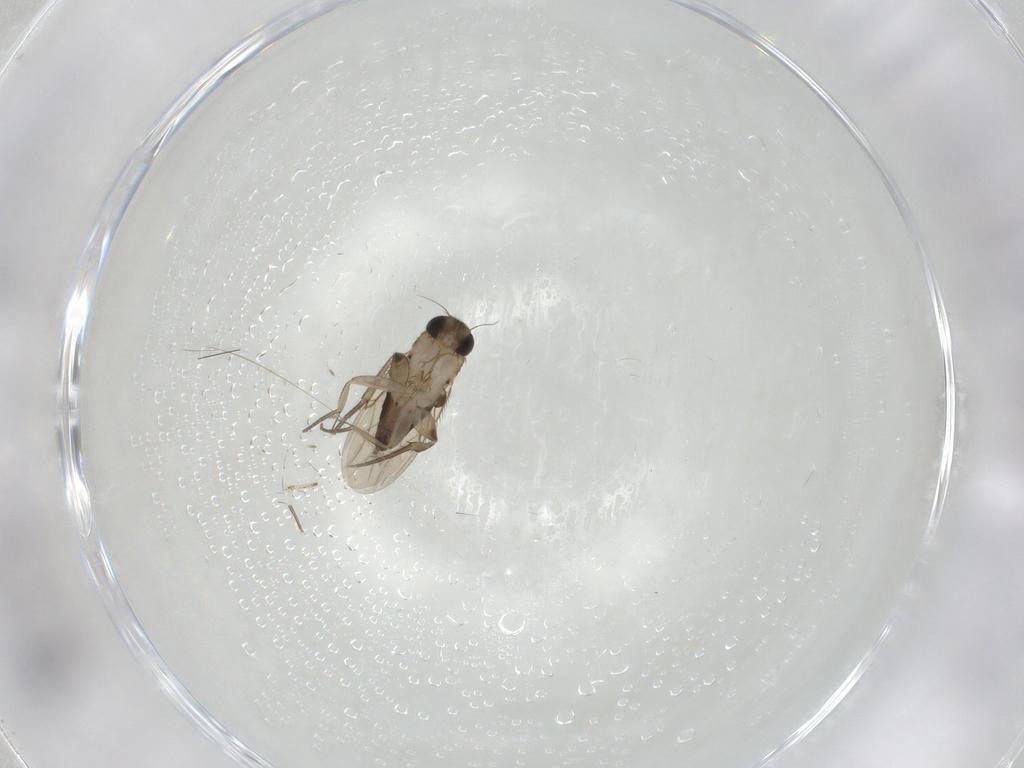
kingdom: Animalia
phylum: Arthropoda
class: Insecta
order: Diptera
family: Phoridae
